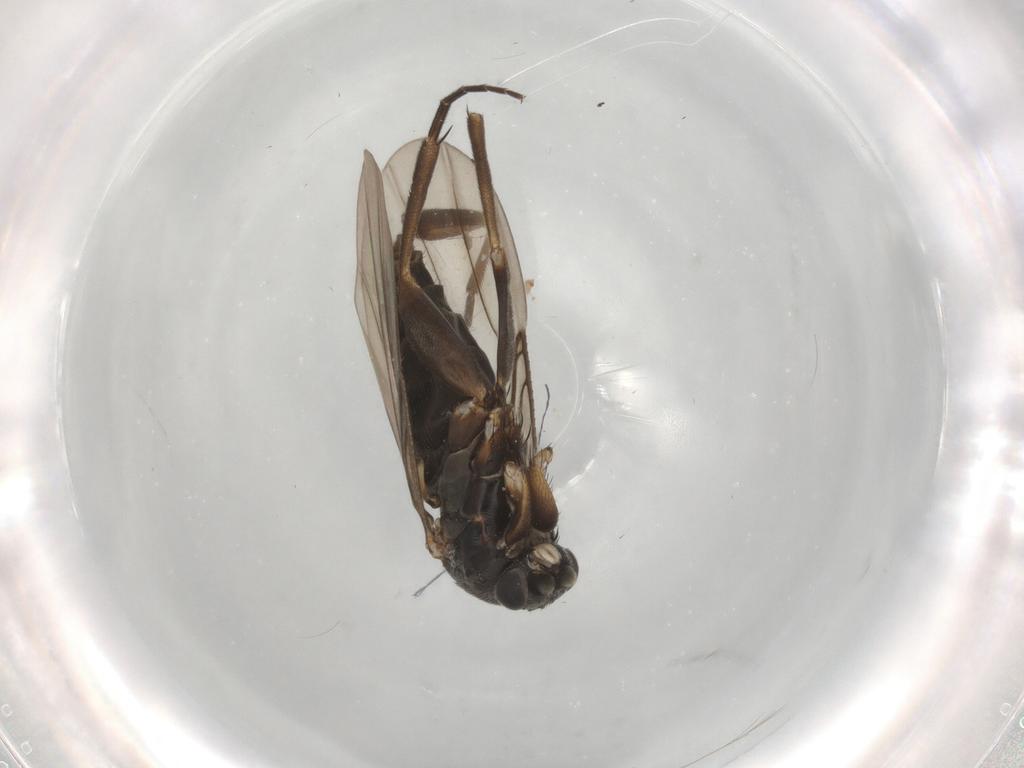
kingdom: Animalia
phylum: Arthropoda
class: Insecta
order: Diptera
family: Phoridae
